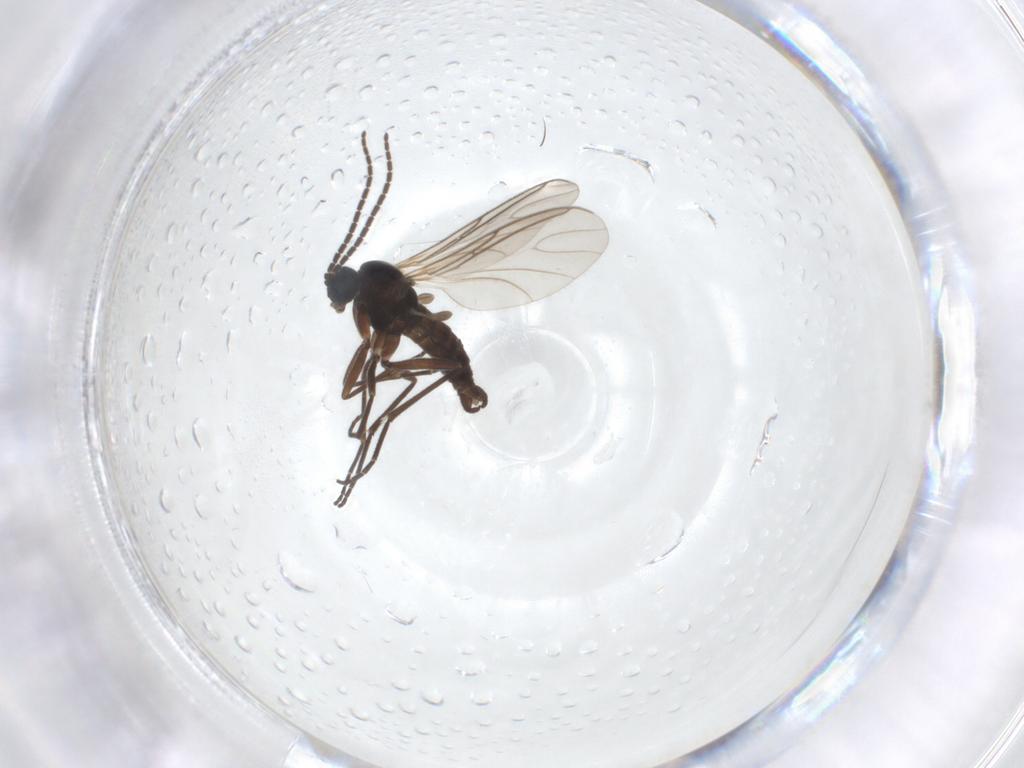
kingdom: Animalia
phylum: Arthropoda
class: Insecta
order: Diptera
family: Sciaridae
